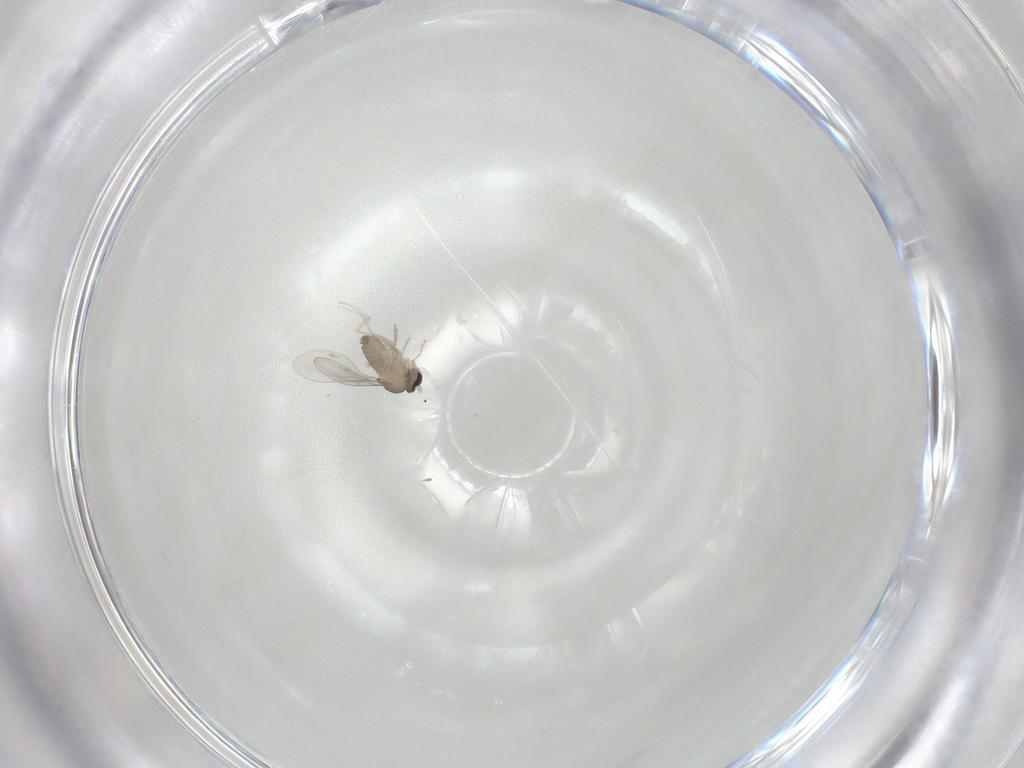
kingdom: Animalia
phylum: Arthropoda
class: Insecta
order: Diptera
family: Cecidomyiidae
